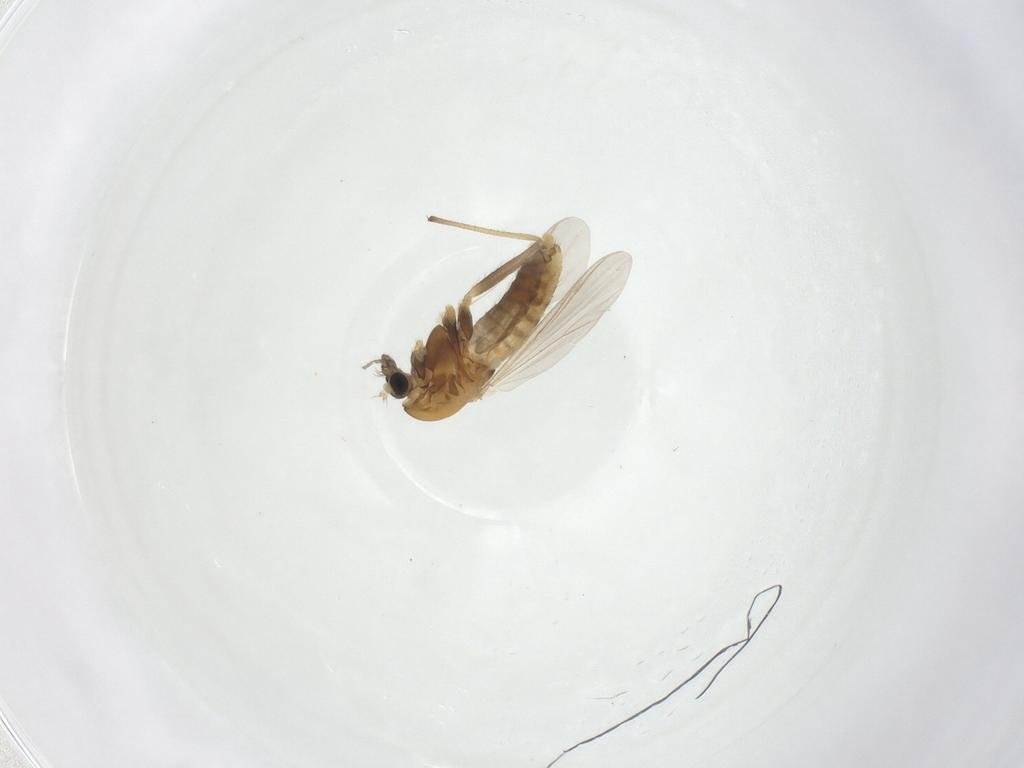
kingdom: Animalia
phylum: Arthropoda
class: Insecta
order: Diptera
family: Chironomidae
